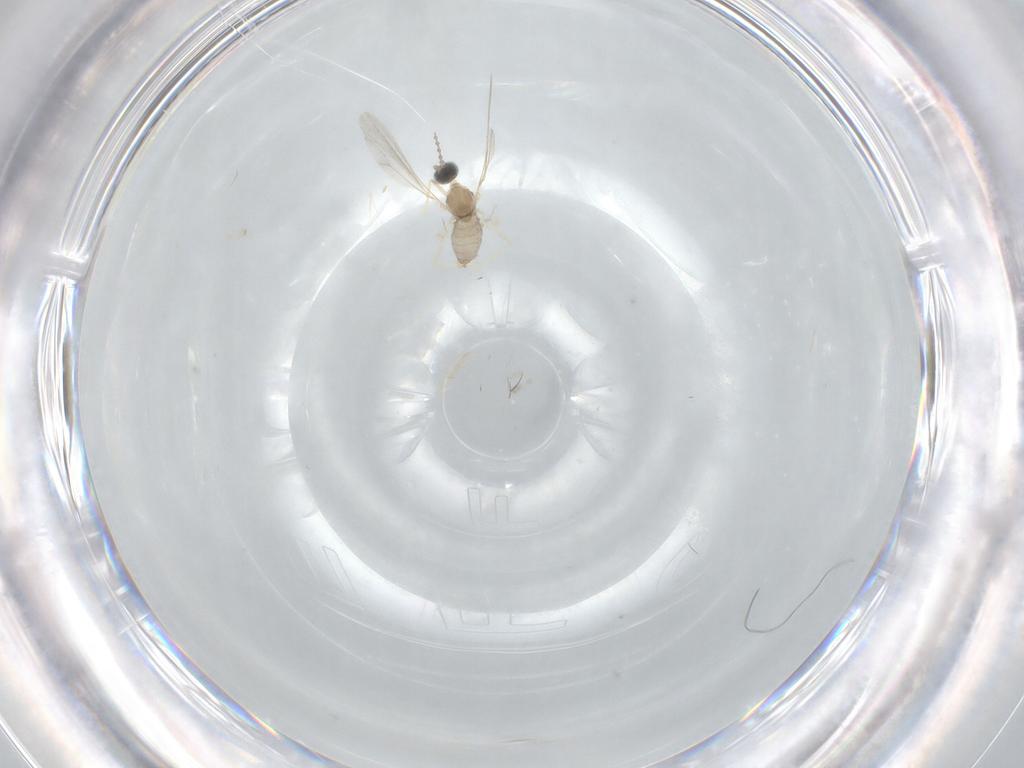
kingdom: Animalia
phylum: Arthropoda
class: Insecta
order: Diptera
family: Cecidomyiidae
